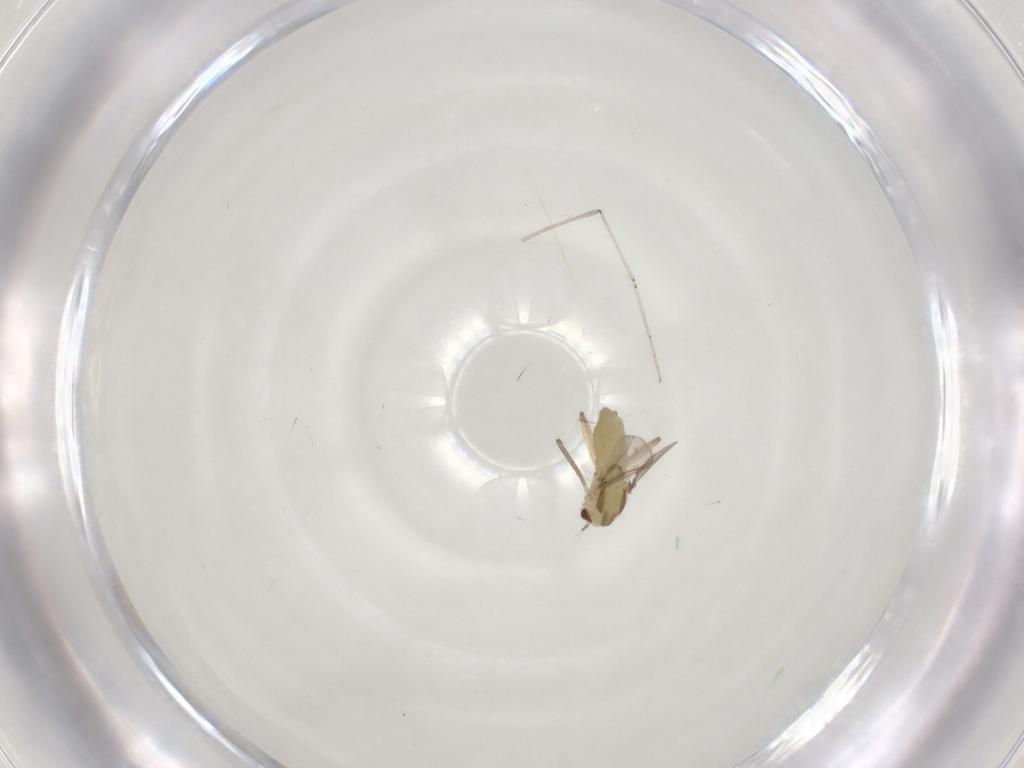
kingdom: Animalia
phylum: Arthropoda
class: Insecta
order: Diptera
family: Chironomidae
